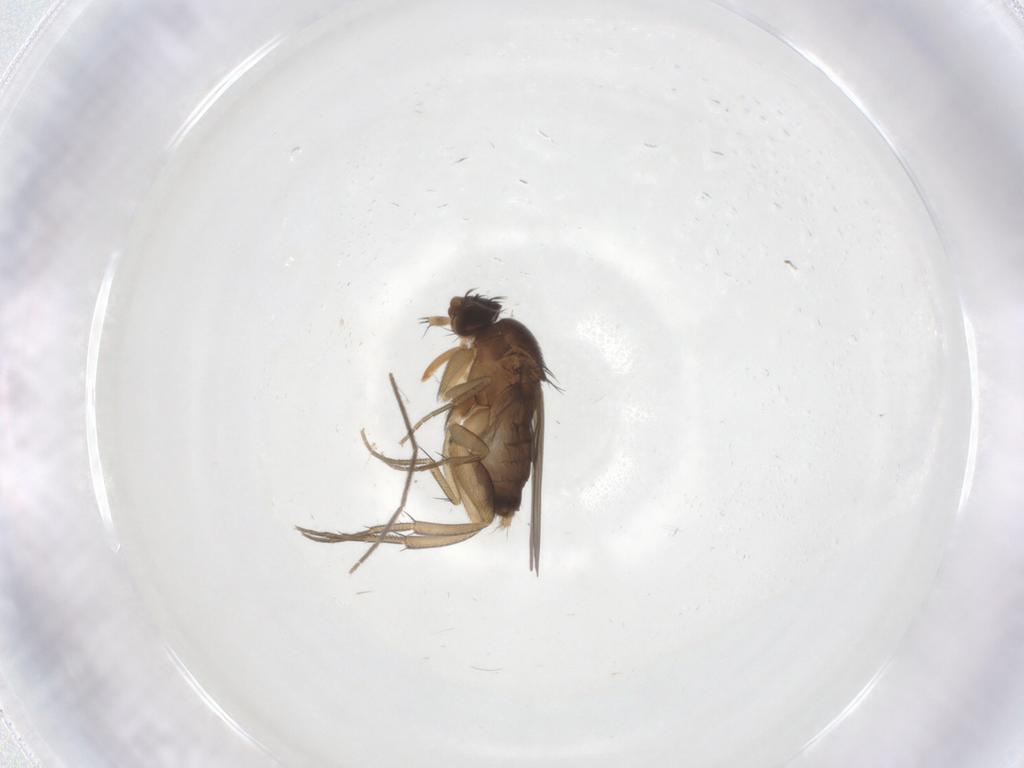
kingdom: Animalia
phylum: Arthropoda
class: Insecta
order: Diptera
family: Phoridae
